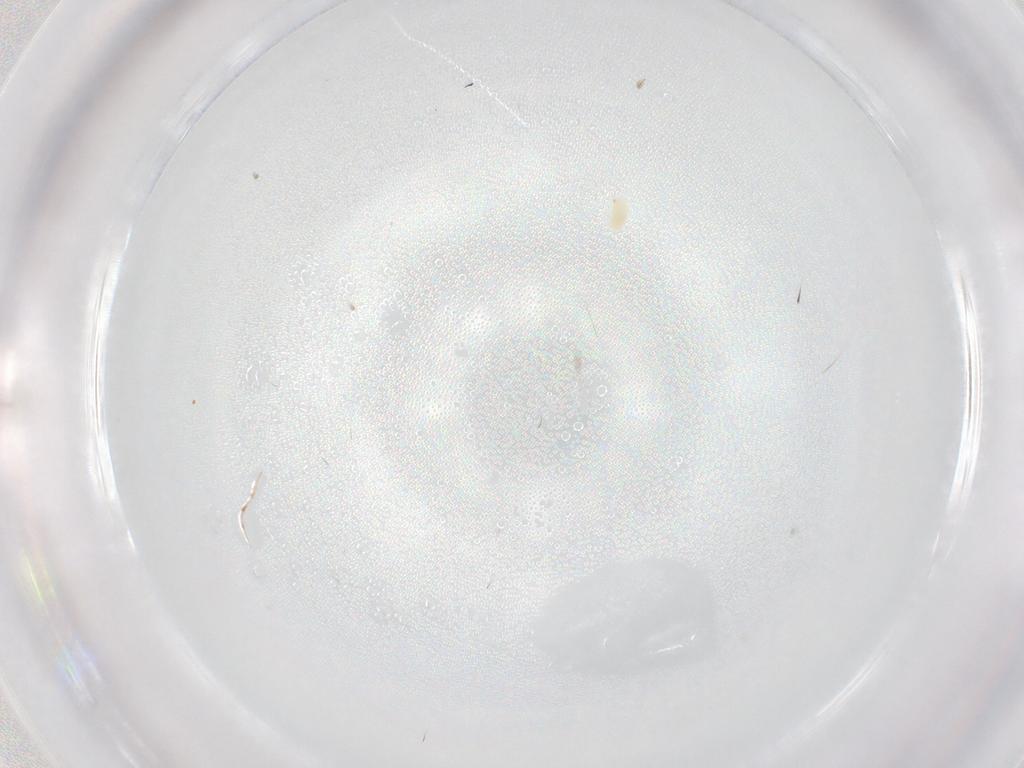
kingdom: Animalia
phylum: Arthropoda
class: Arachnida
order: Trombidiformes
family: Tetranychidae
